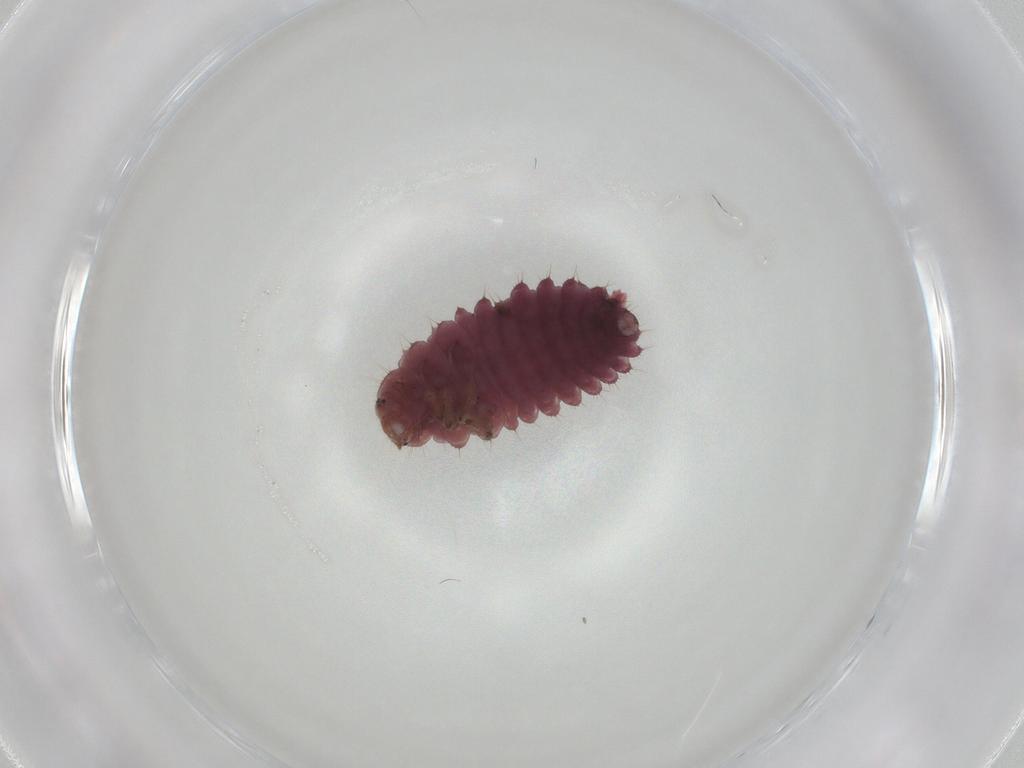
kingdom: Animalia
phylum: Arthropoda
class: Insecta
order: Coleoptera
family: Coccinellidae
